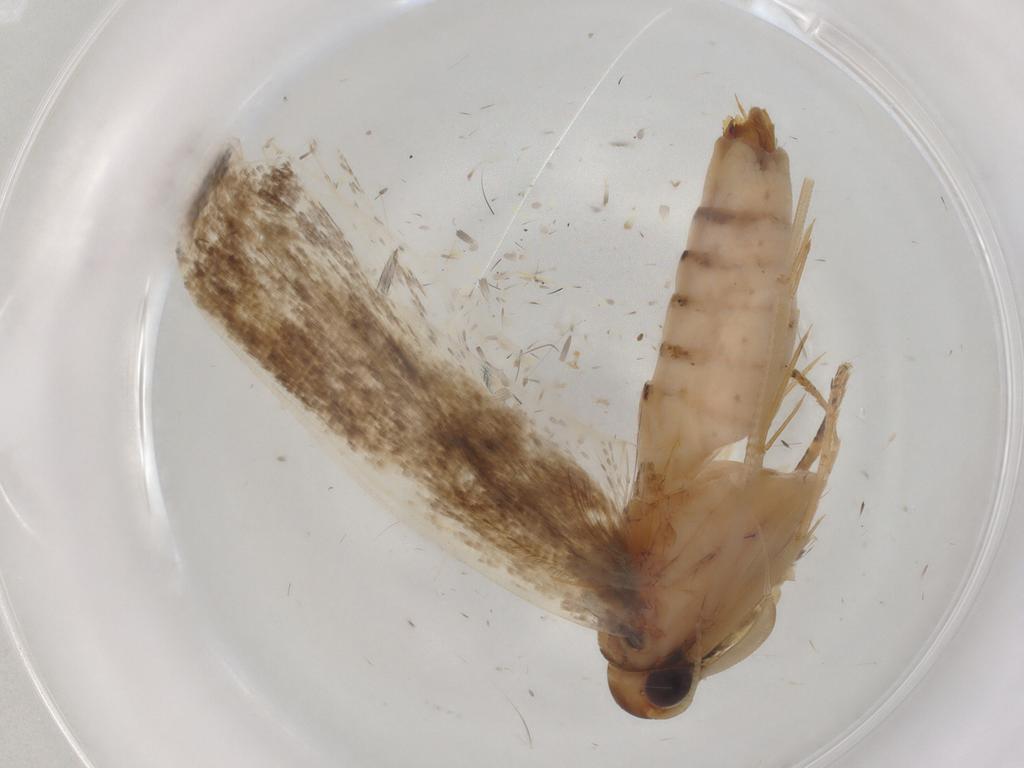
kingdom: Animalia
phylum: Arthropoda
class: Insecta
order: Lepidoptera
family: Gelechiidae
